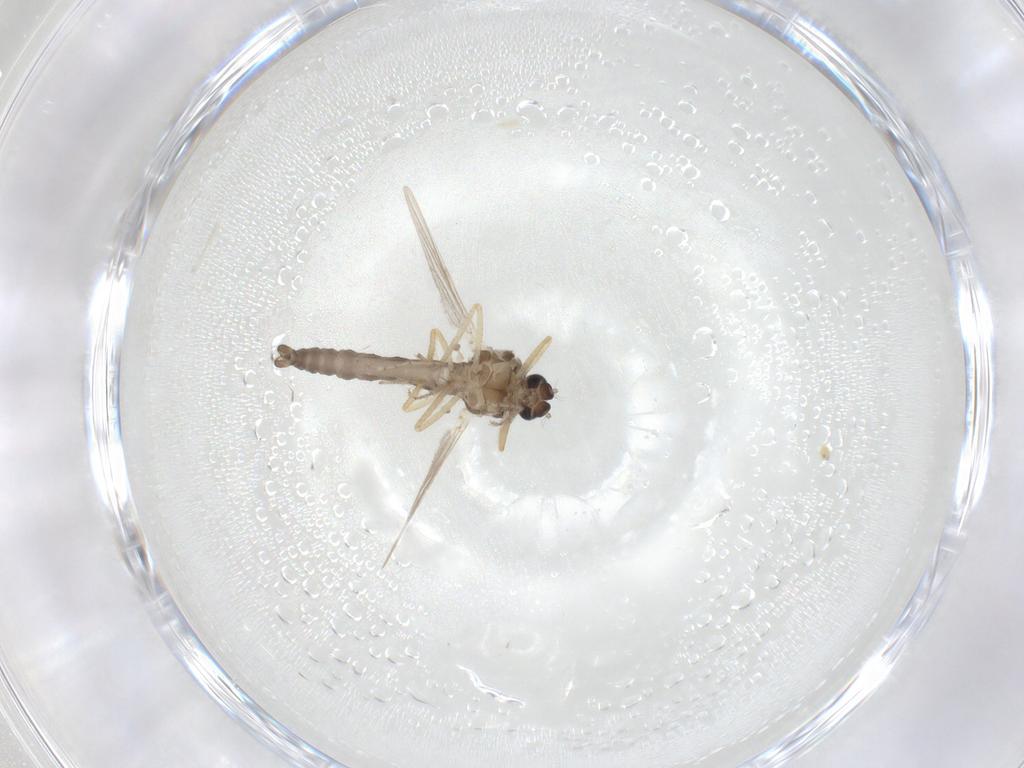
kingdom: Animalia
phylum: Arthropoda
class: Insecta
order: Diptera
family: Ceratopogonidae
